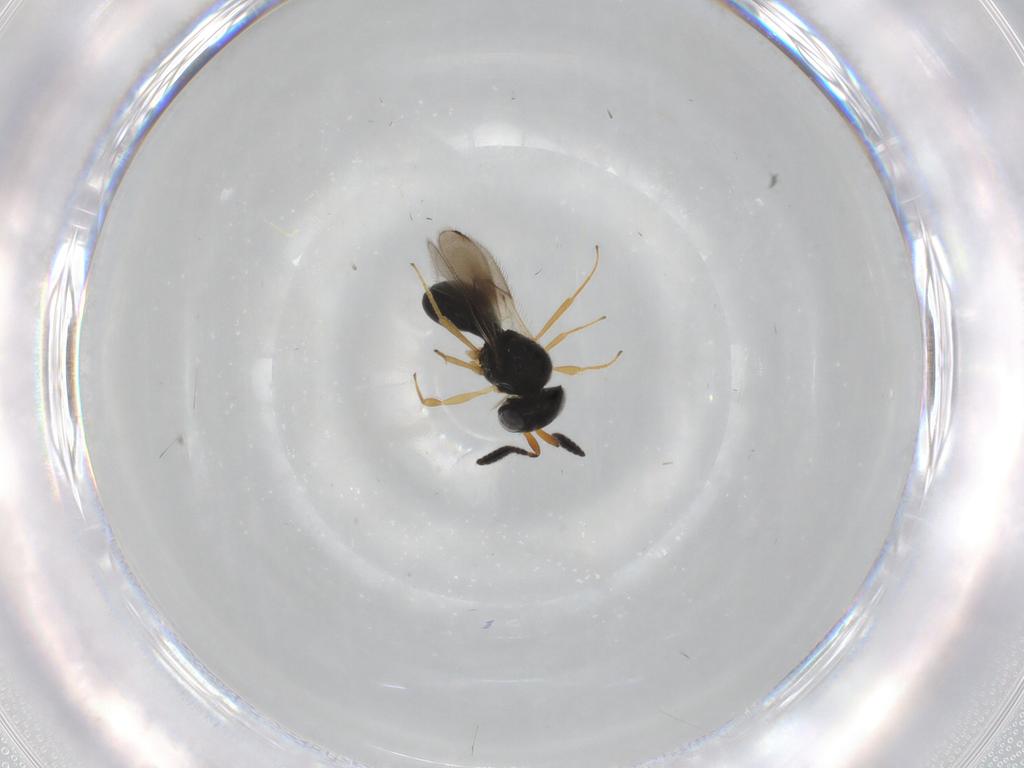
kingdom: Animalia
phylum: Arthropoda
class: Insecta
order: Hymenoptera
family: Scelionidae
